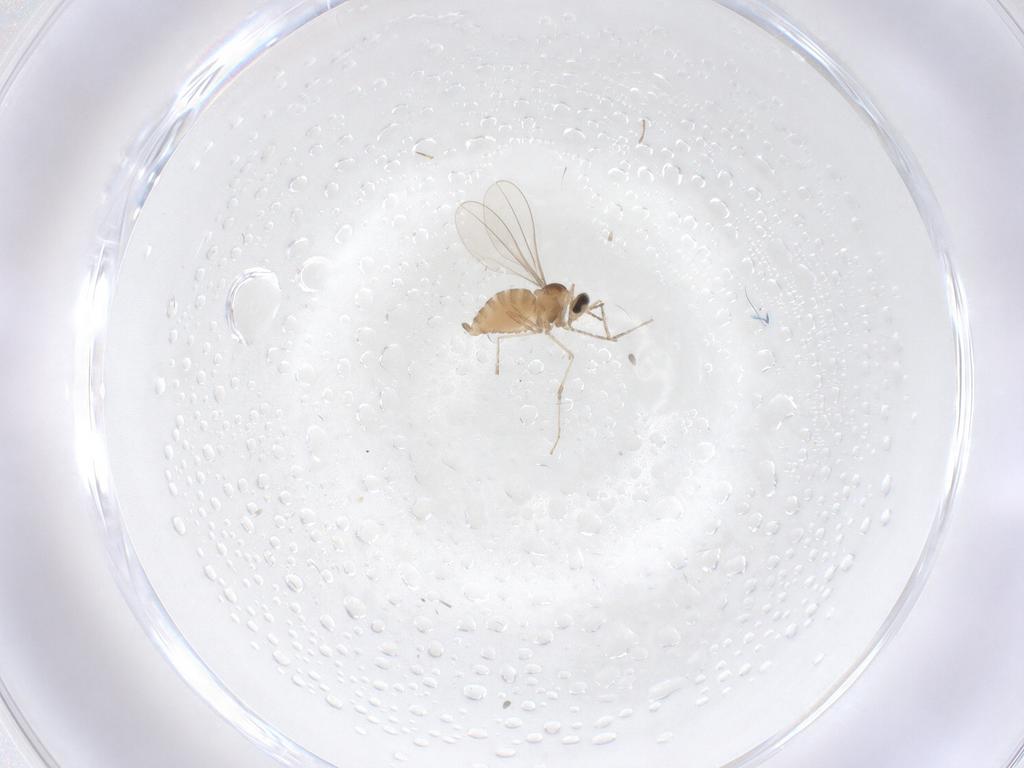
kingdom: Animalia
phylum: Arthropoda
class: Insecta
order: Diptera
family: Cecidomyiidae
